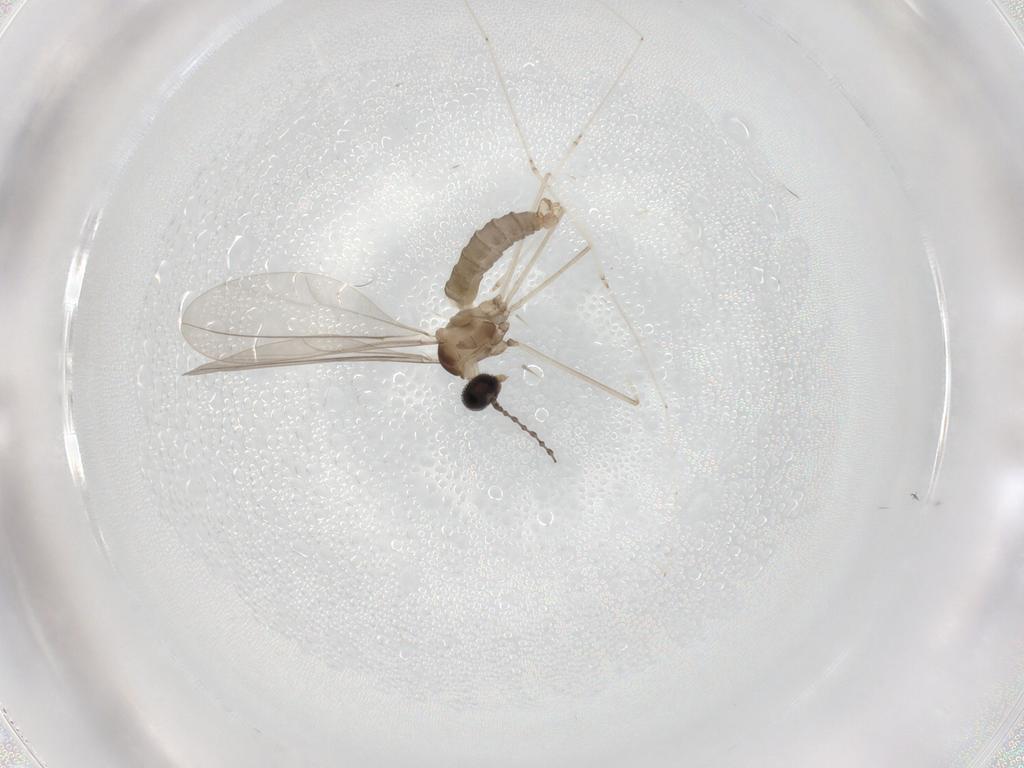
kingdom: Animalia
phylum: Arthropoda
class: Insecta
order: Diptera
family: Cecidomyiidae
